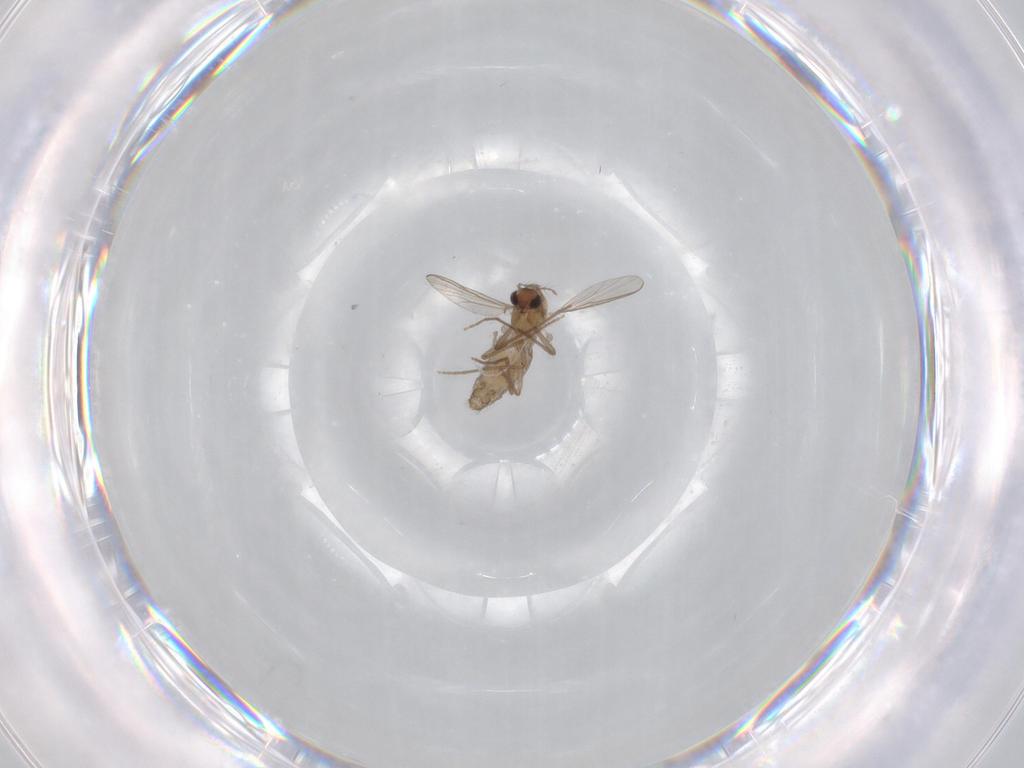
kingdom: Animalia
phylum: Arthropoda
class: Insecta
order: Diptera
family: Chironomidae
